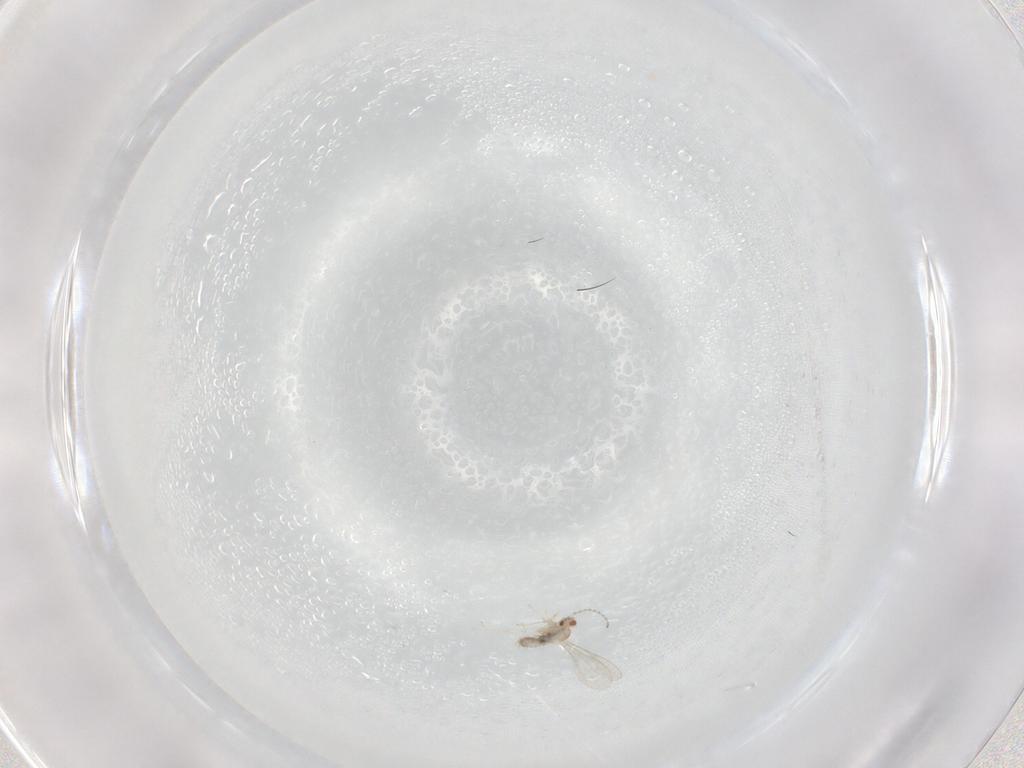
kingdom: Animalia
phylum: Arthropoda
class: Insecta
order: Diptera
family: Cecidomyiidae
